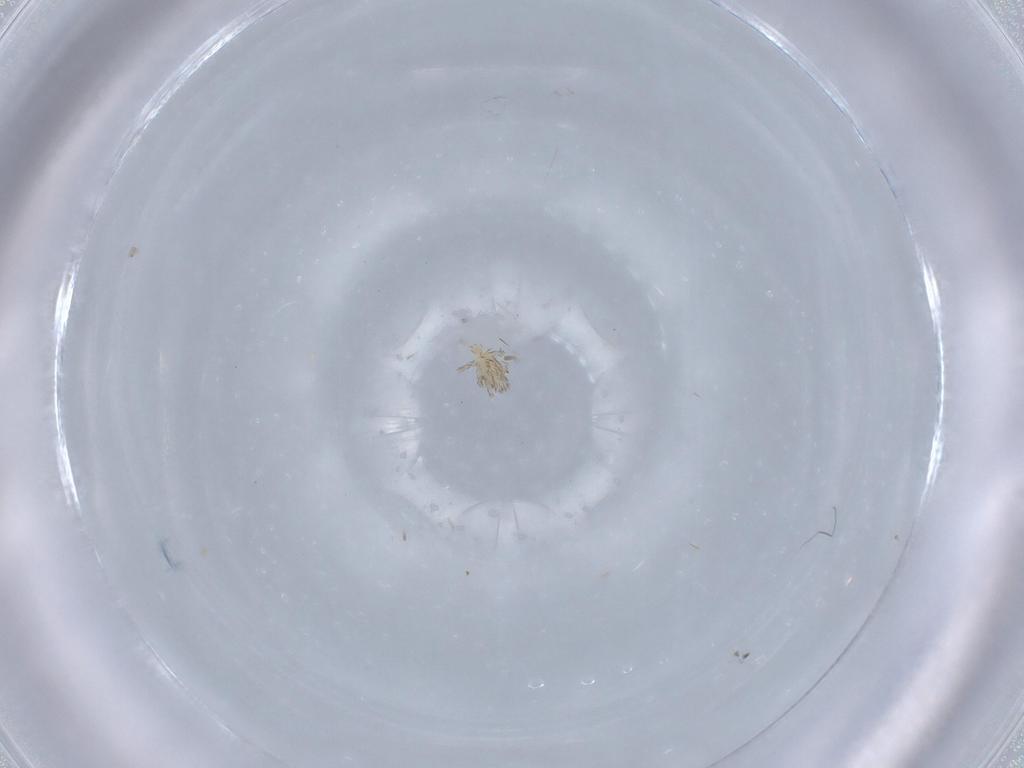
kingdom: Animalia
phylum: Arthropoda
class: Arachnida
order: Trombidiformes
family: Erythraeidae
